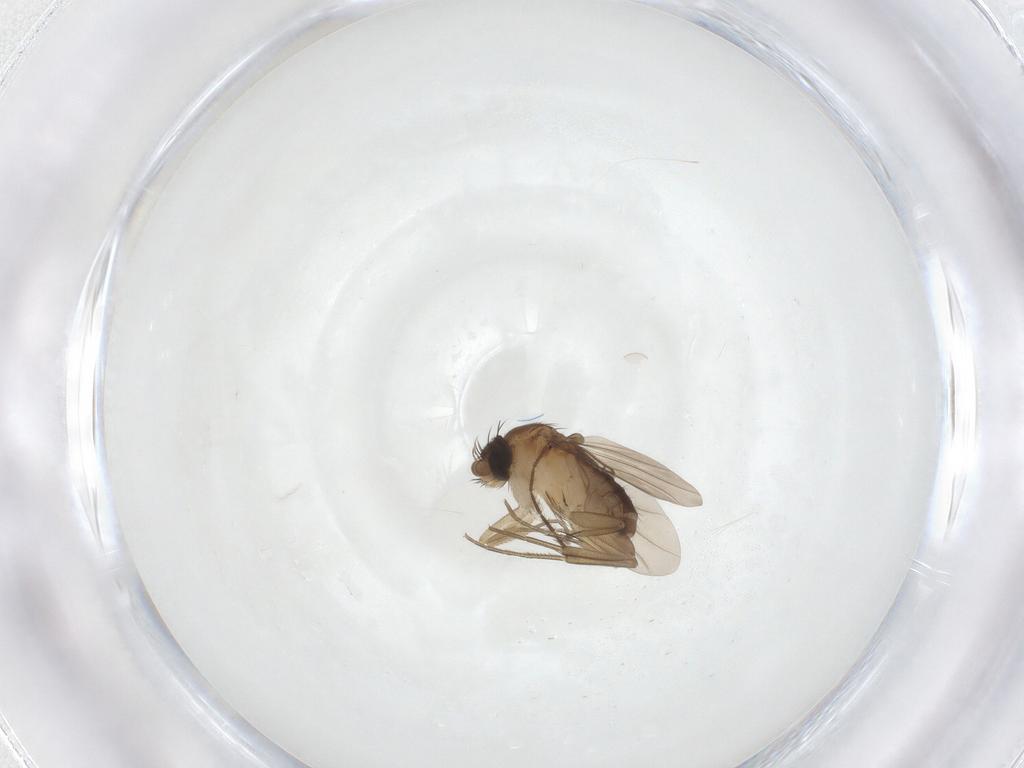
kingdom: Animalia
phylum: Arthropoda
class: Insecta
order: Diptera
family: Phoridae
